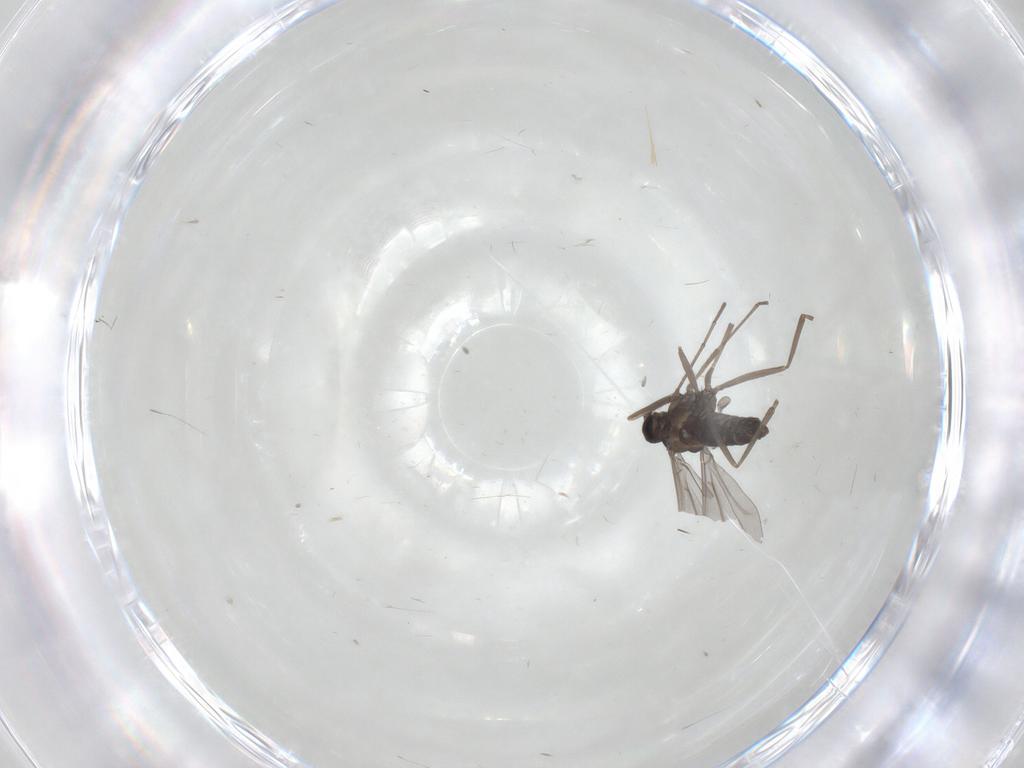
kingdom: Animalia
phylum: Arthropoda
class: Insecta
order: Diptera
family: Cecidomyiidae
